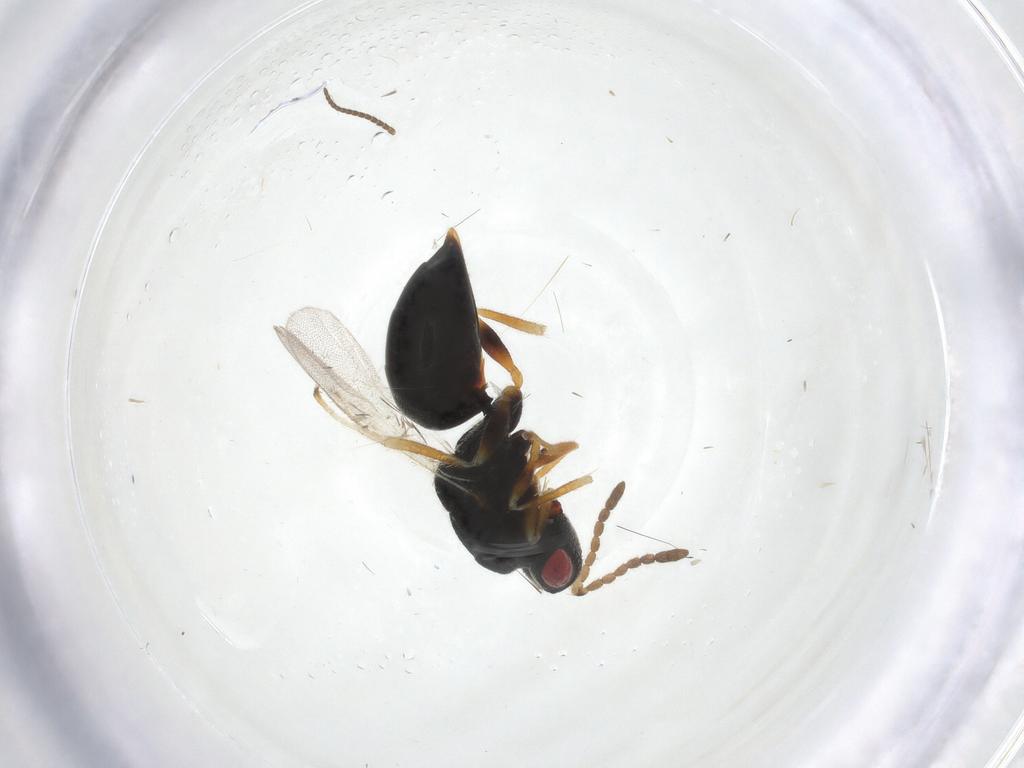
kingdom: Animalia
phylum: Arthropoda
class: Insecta
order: Hymenoptera
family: Eurytomidae
